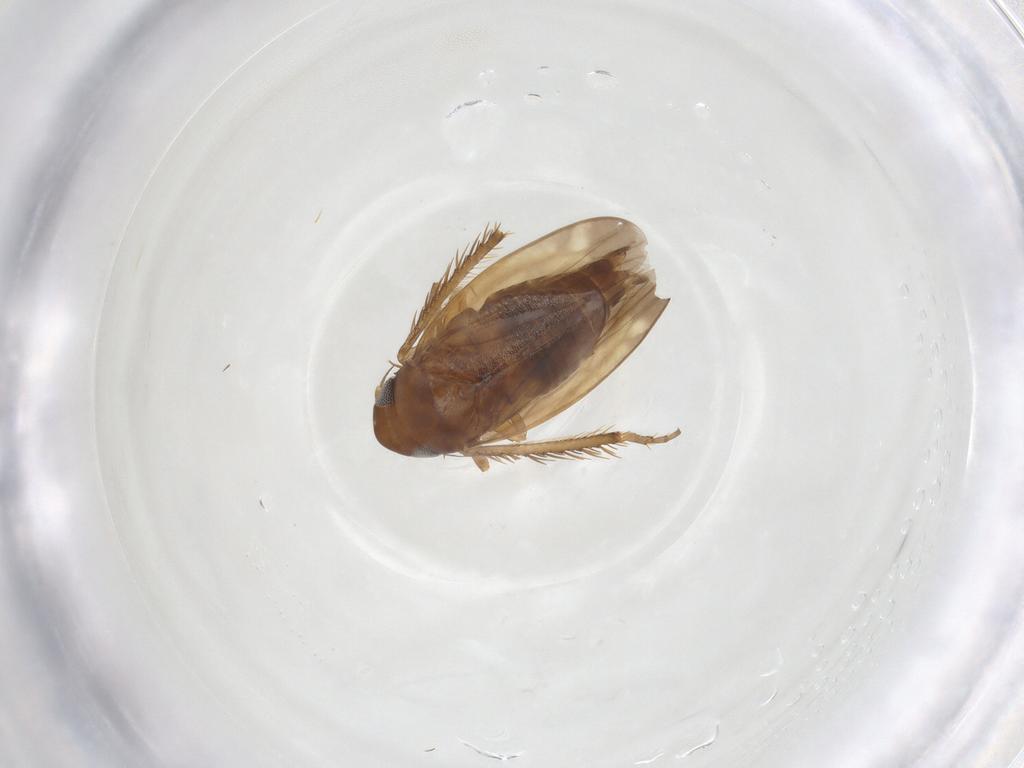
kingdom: Animalia
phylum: Arthropoda
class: Insecta
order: Hemiptera
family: Cicadellidae
